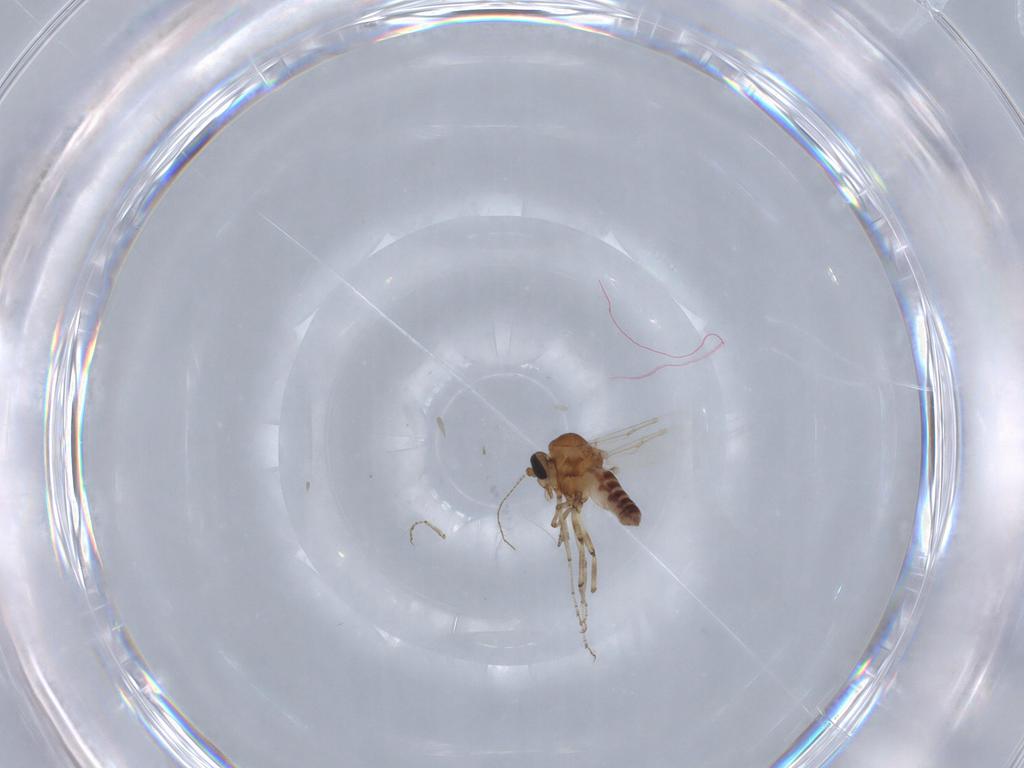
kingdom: Animalia
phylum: Arthropoda
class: Insecta
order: Diptera
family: Ceratopogonidae
